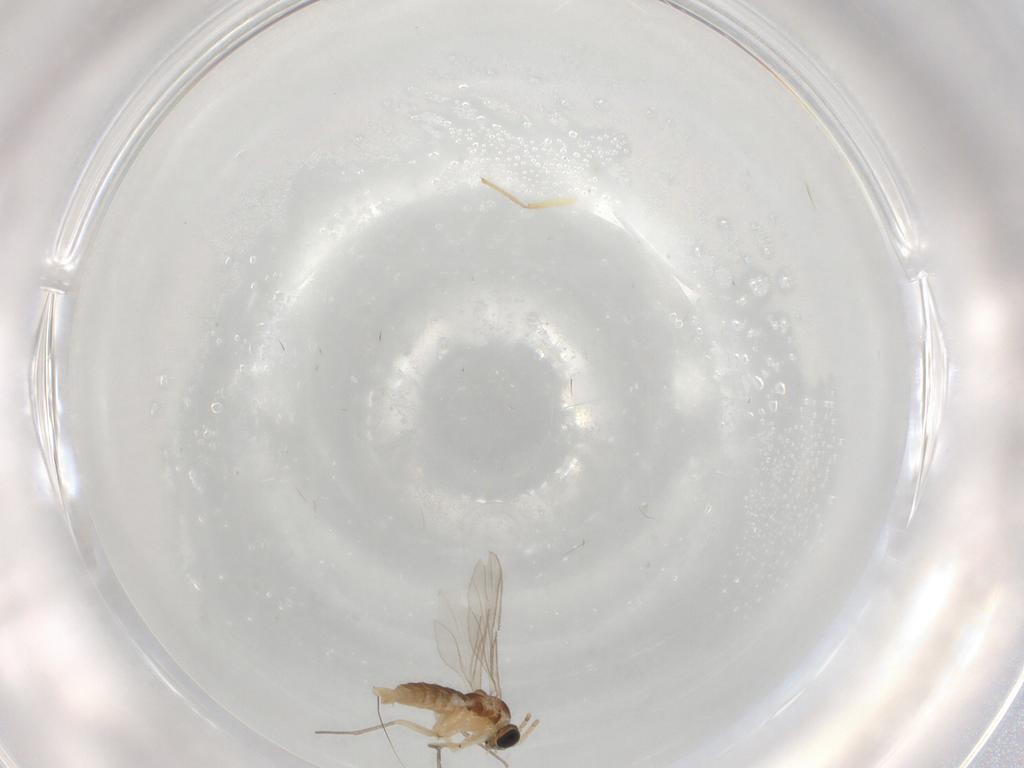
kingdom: Animalia
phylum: Arthropoda
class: Insecta
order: Diptera
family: Sciaridae
